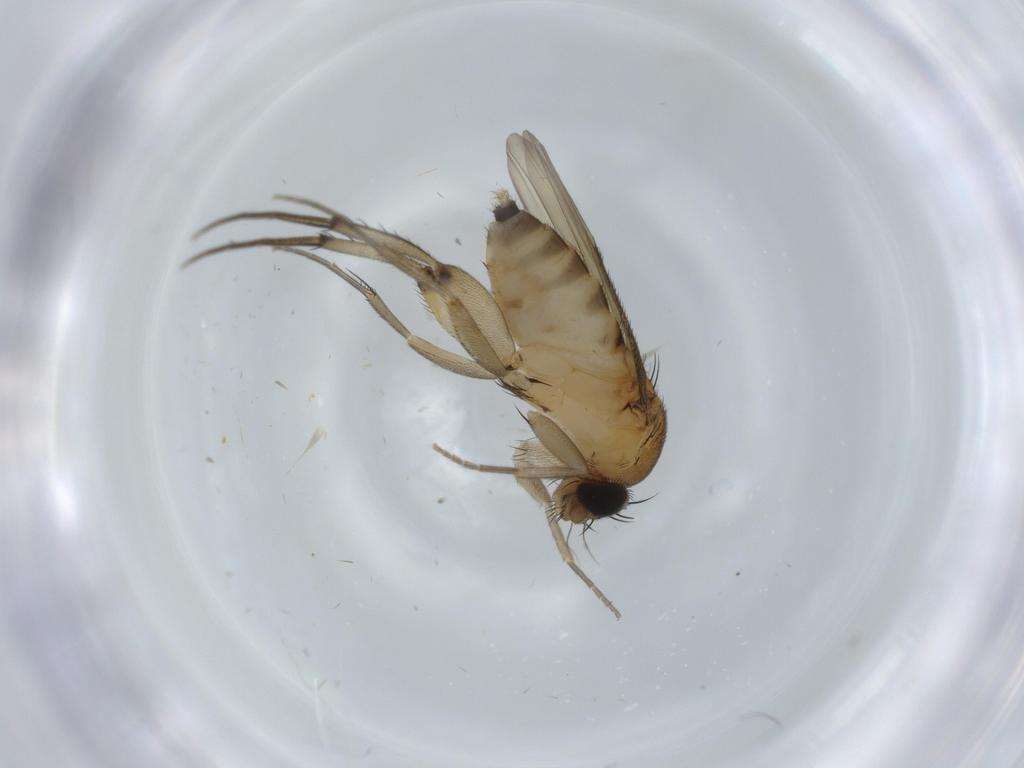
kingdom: Animalia
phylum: Arthropoda
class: Insecta
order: Diptera
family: Phoridae
